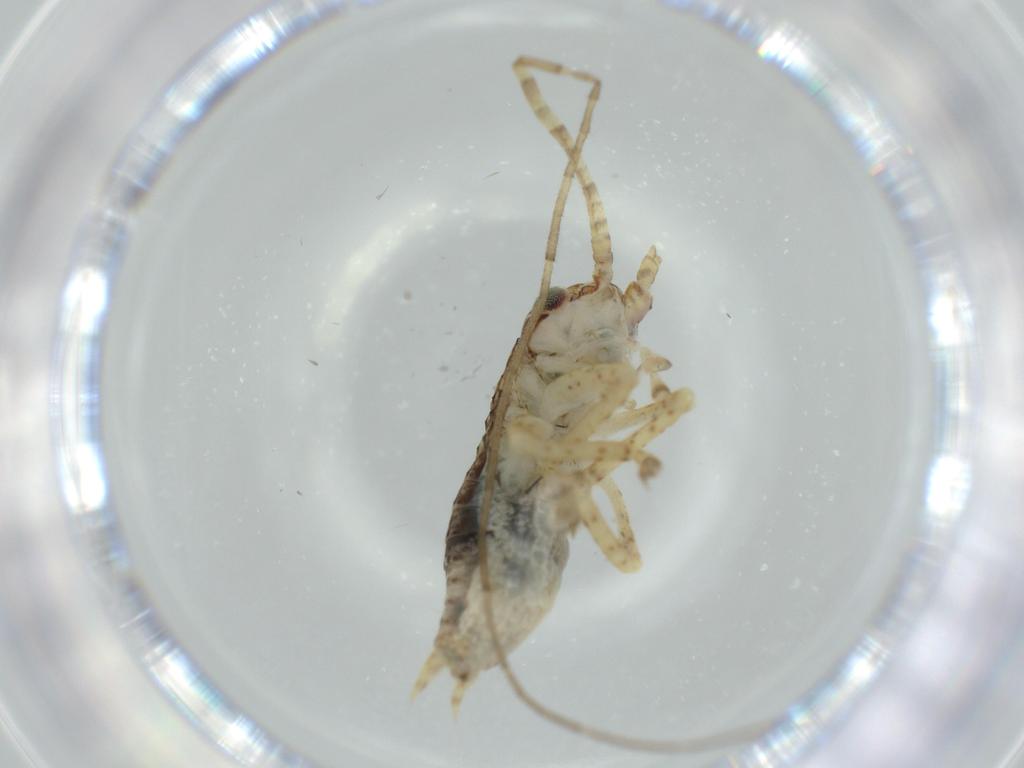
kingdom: Animalia
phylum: Arthropoda
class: Insecta
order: Orthoptera
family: Gryllidae
